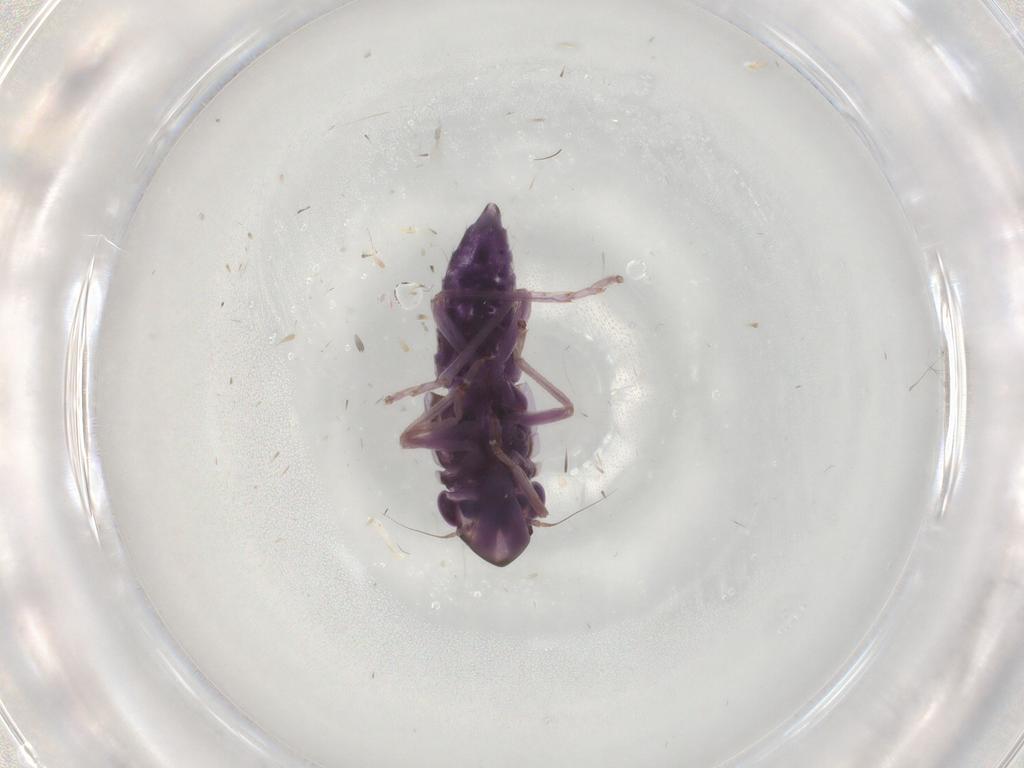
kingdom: Animalia
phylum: Arthropoda
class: Insecta
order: Hemiptera
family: Cicadellidae
